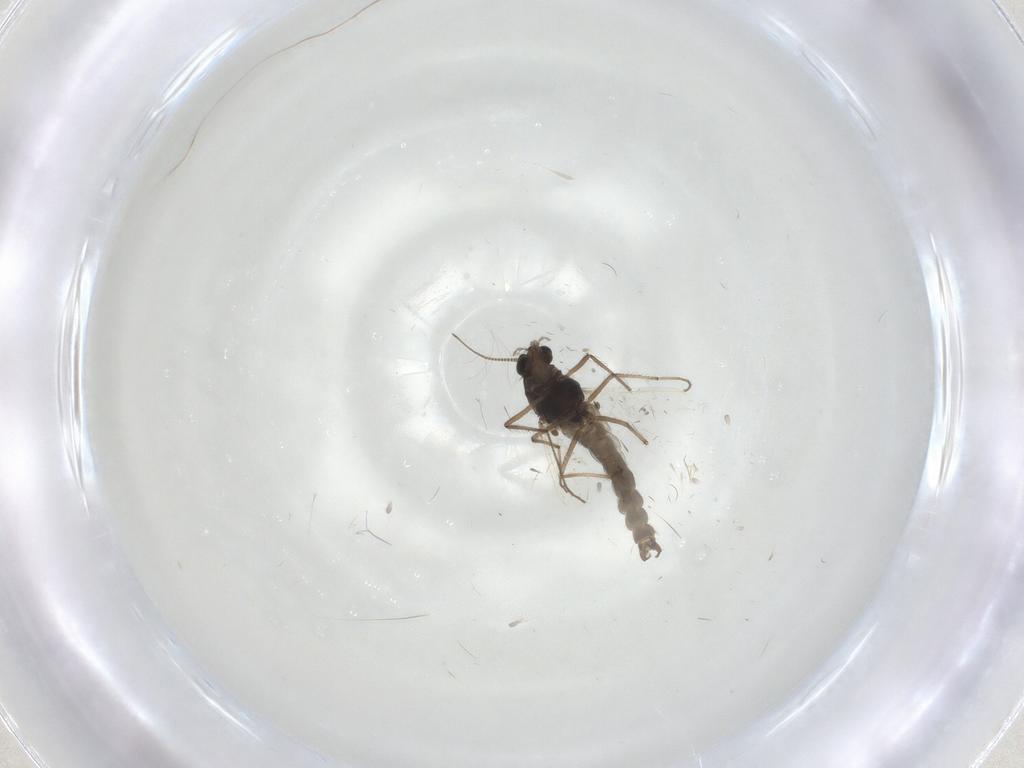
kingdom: Animalia
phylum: Arthropoda
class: Insecta
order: Diptera
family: Chironomidae
